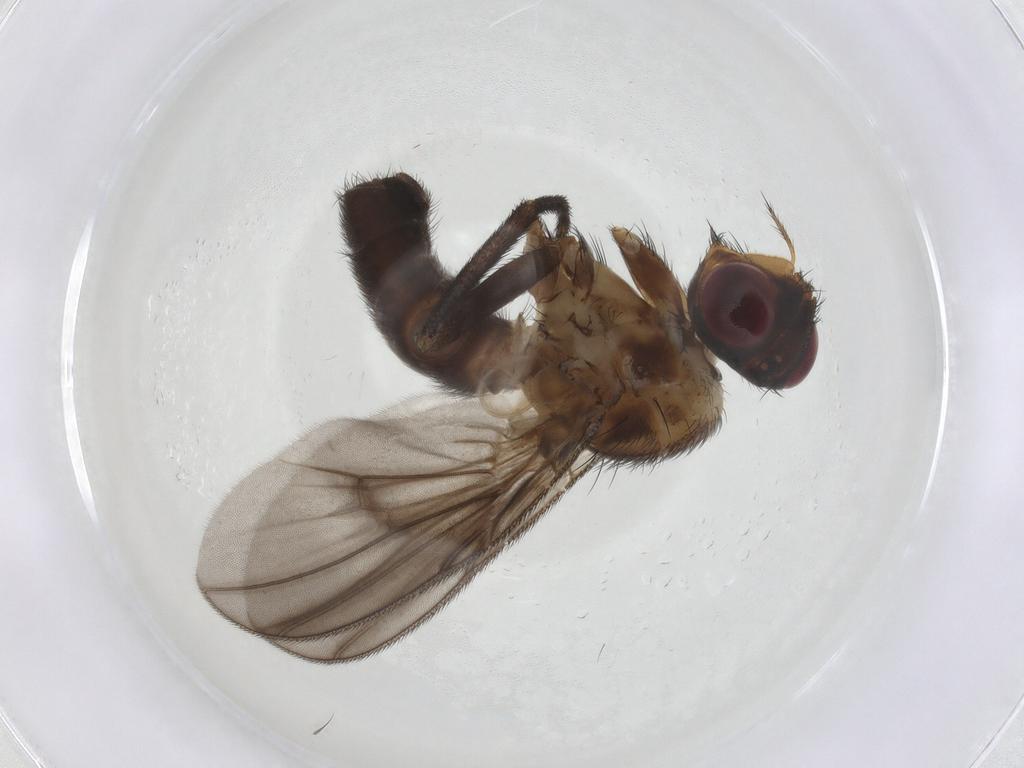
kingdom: Animalia
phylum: Arthropoda
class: Insecta
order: Diptera
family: Calliphoridae
